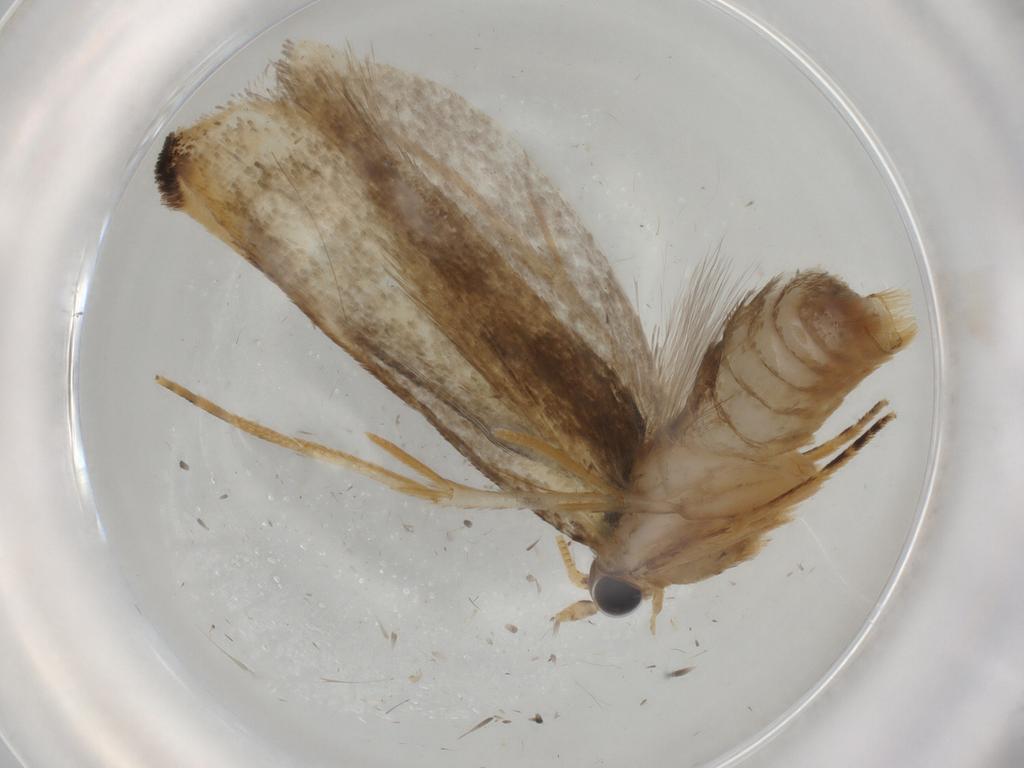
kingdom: Animalia
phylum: Arthropoda
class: Insecta
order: Lepidoptera
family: Tineidae
